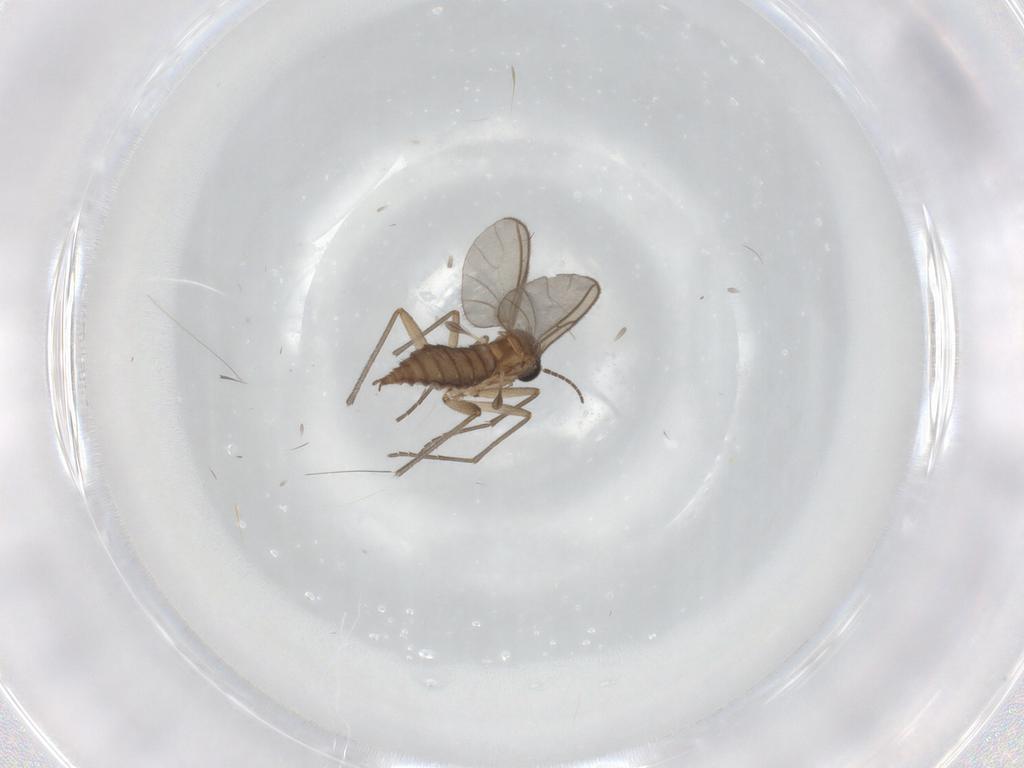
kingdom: Animalia
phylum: Arthropoda
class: Insecta
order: Diptera
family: Sciaridae
